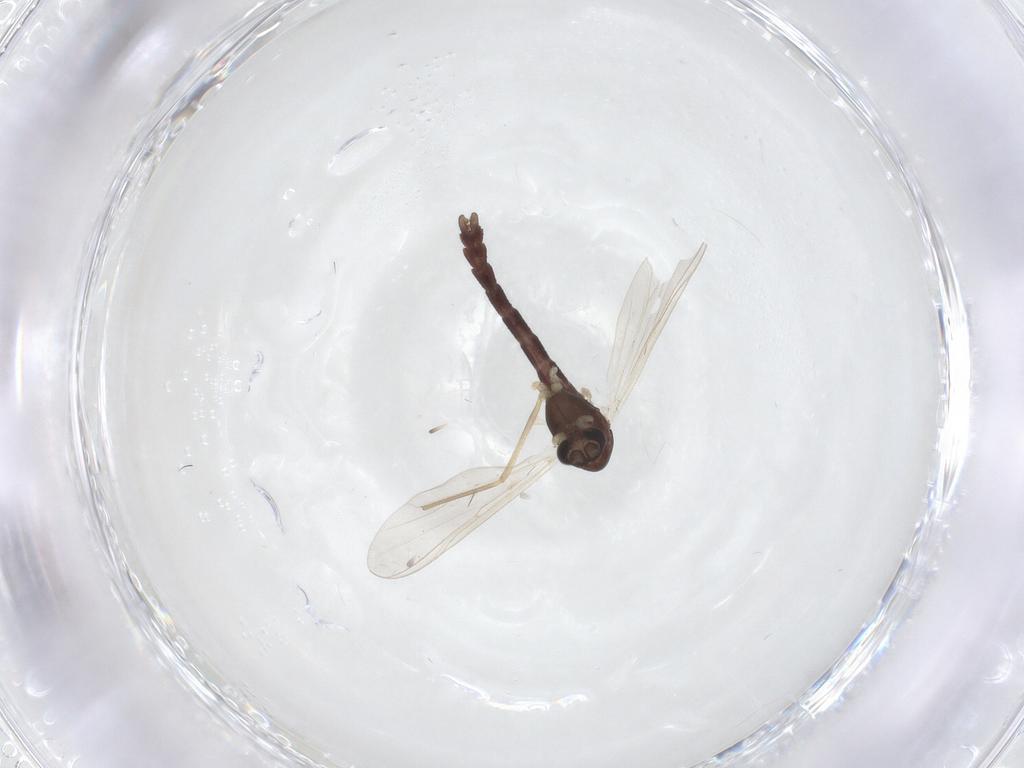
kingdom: Animalia
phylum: Arthropoda
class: Insecta
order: Diptera
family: Chironomidae
